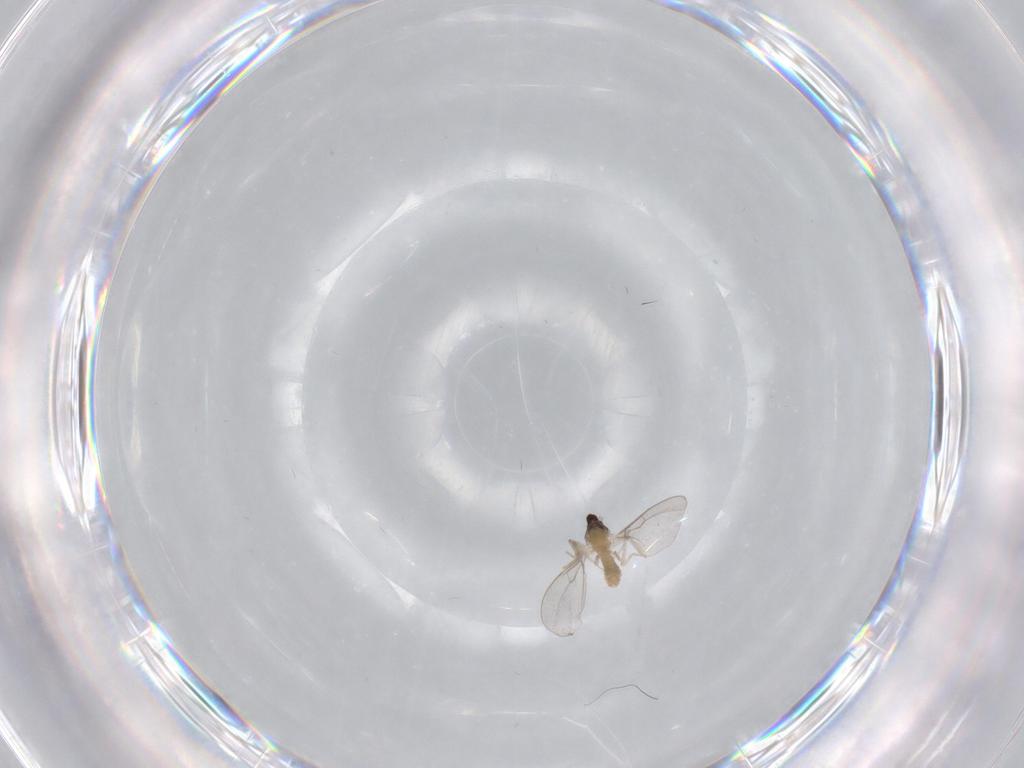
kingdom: Animalia
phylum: Arthropoda
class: Insecta
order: Diptera
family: Cecidomyiidae
